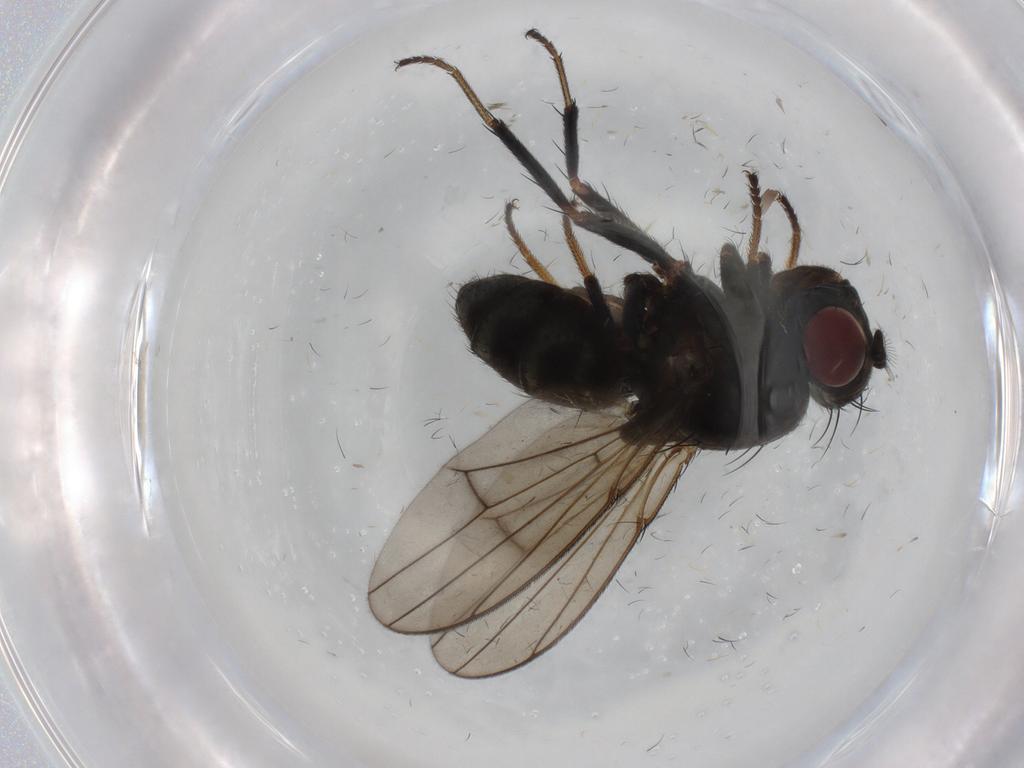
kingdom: Animalia
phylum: Arthropoda
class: Insecta
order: Diptera
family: Ephydridae
